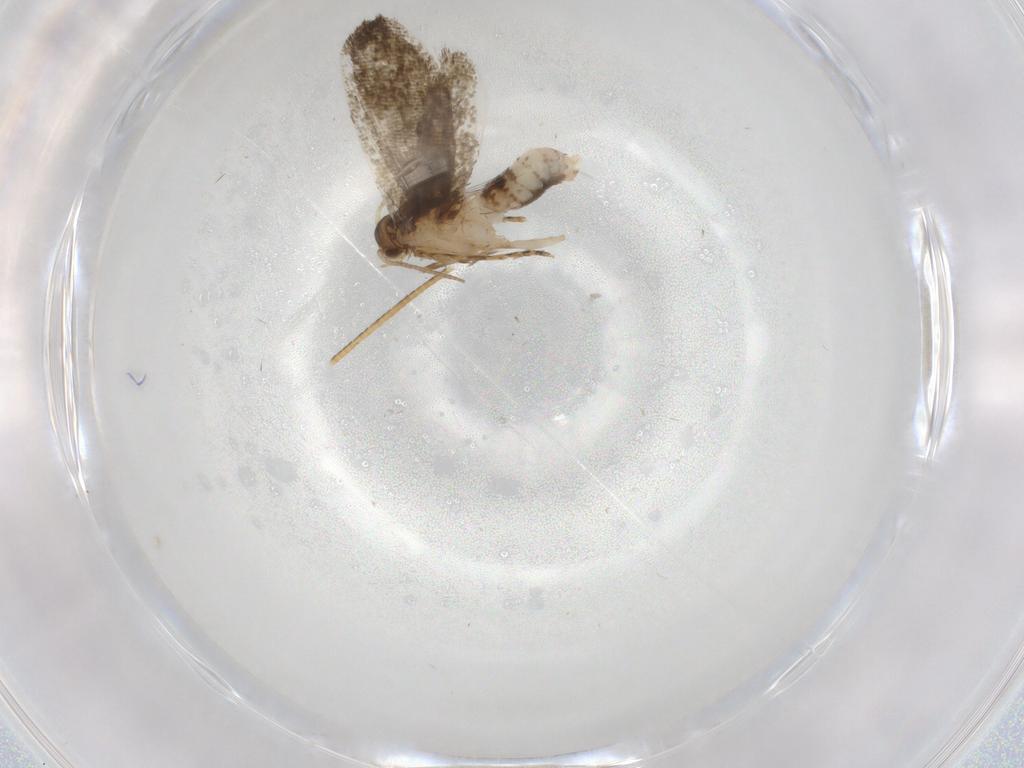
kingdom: Animalia
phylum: Arthropoda
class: Insecta
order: Lepidoptera
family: Tineidae
